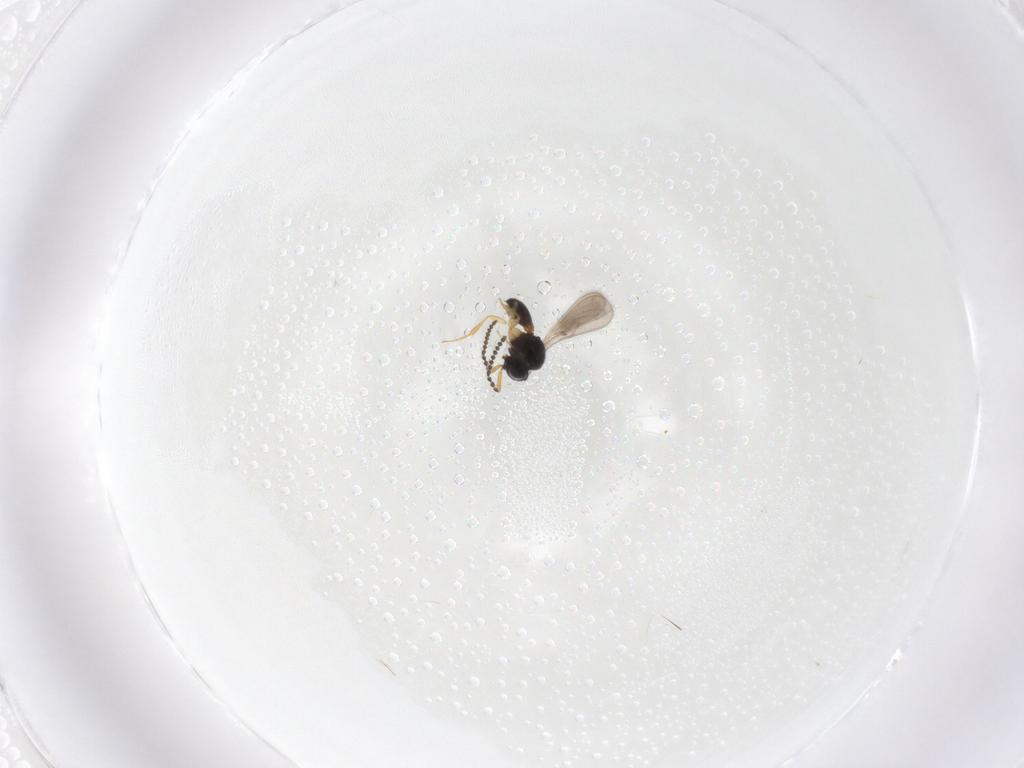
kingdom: Animalia
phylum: Arthropoda
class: Insecta
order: Hymenoptera
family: Scelionidae
